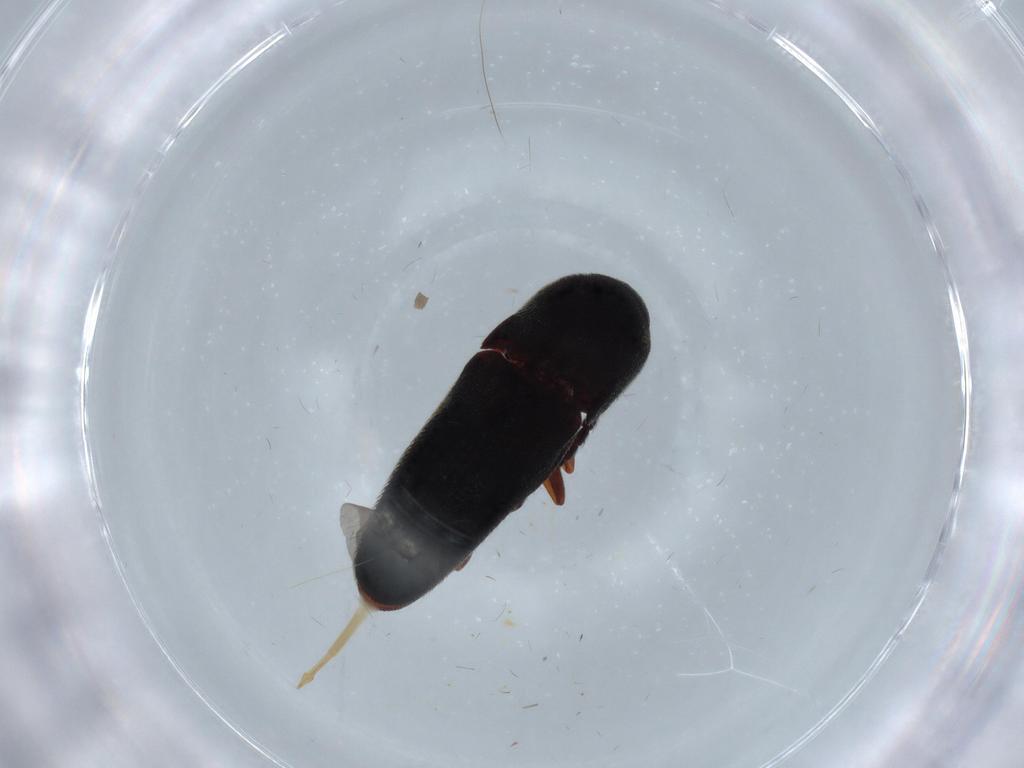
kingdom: Animalia
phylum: Arthropoda
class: Insecta
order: Coleoptera
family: Eucnemidae
